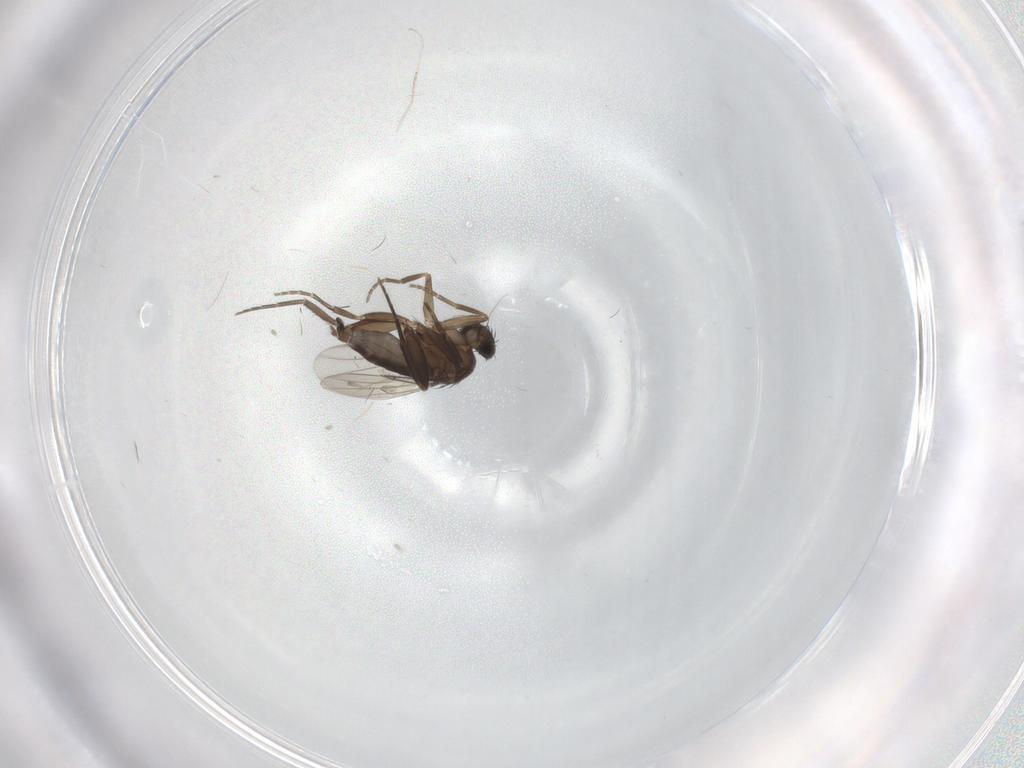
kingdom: Animalia
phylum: Arthropoda
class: Insecta
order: Diptera
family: Phoridae
